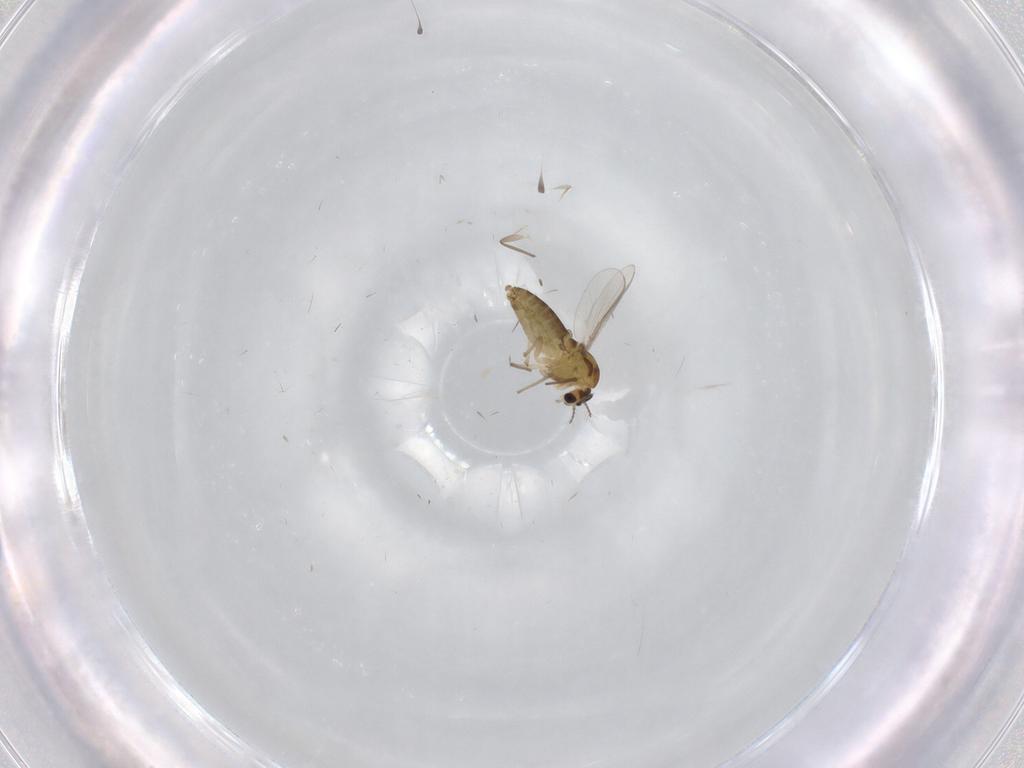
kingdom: Animalia
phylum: Arthropoda
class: Insecta
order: Diptera
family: Chironomidae
